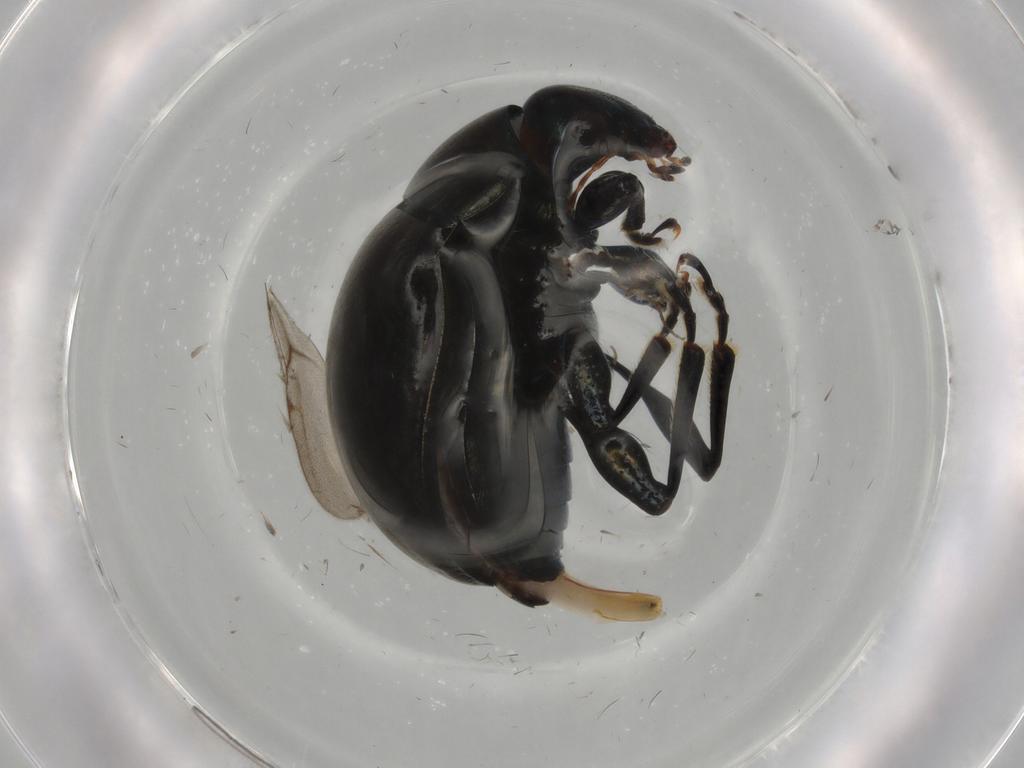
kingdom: Animalia
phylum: Arthropoda
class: Insecta
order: Coleoptera
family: Chrysomelidae
